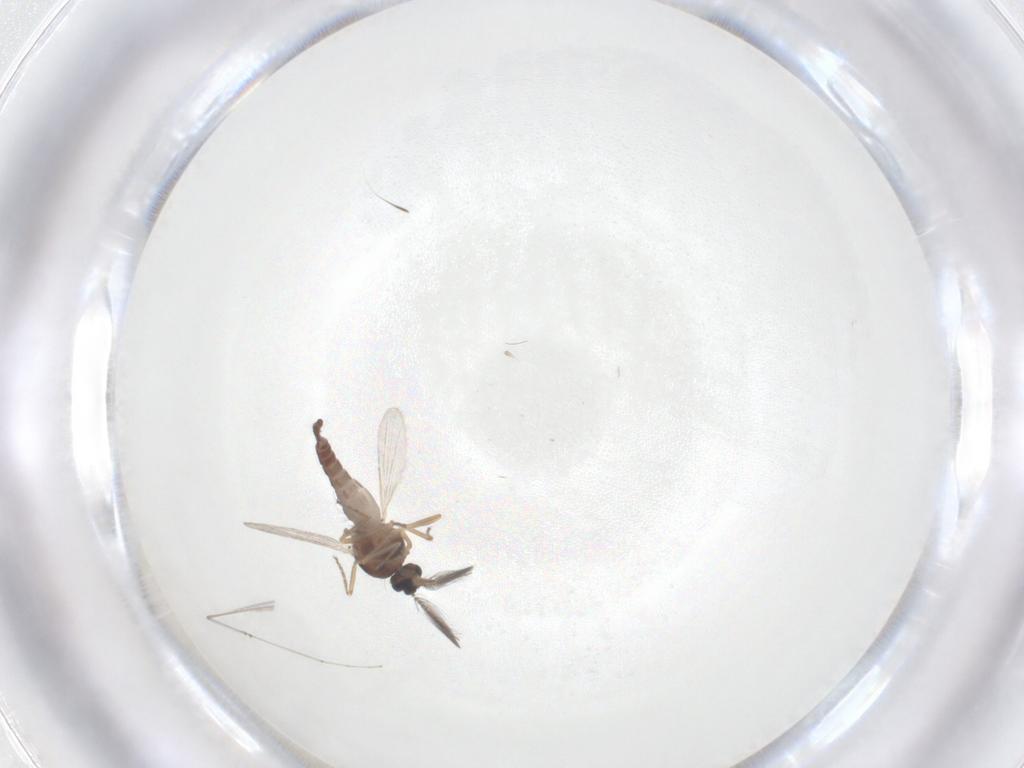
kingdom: Animalia
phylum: Arthropoda
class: Insecta
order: Diptera
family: Ceratopogonidae
